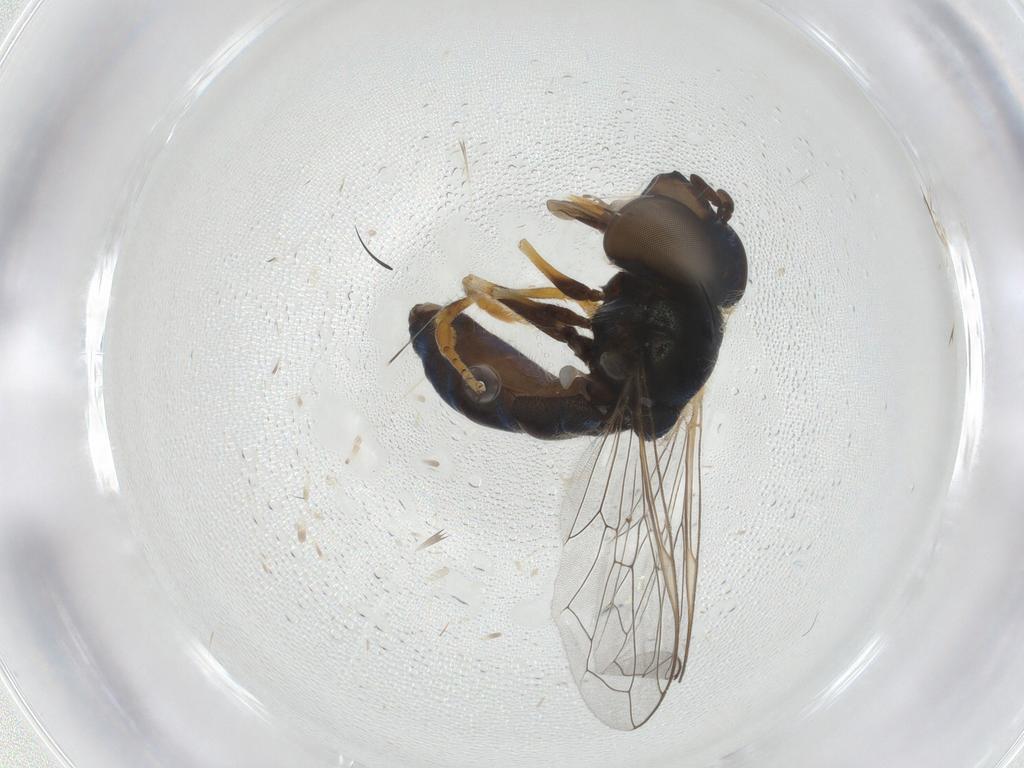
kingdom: Animalia
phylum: Arthropoda
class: Insecta
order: Diptera
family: Syrphidae
